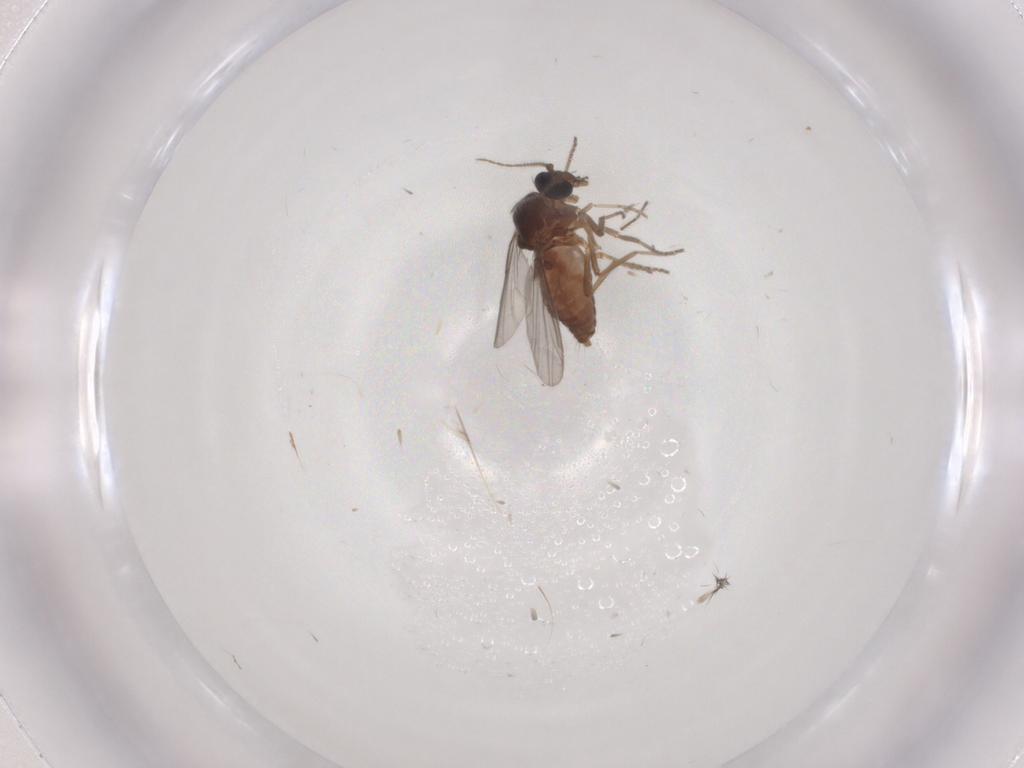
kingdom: Animalia
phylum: Arthropoda
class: Insecta
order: Diptera
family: Ceratopogonidae
